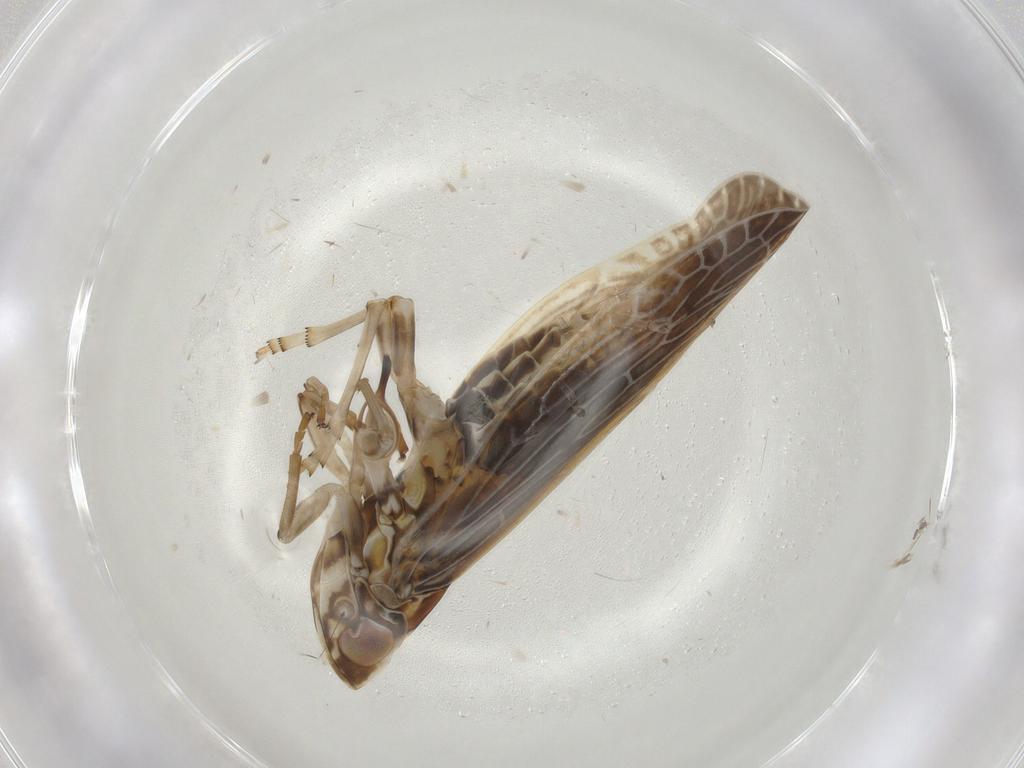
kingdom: Animalia
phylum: Arthropoda
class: Insecta
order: Hemiptera
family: Achilidae
